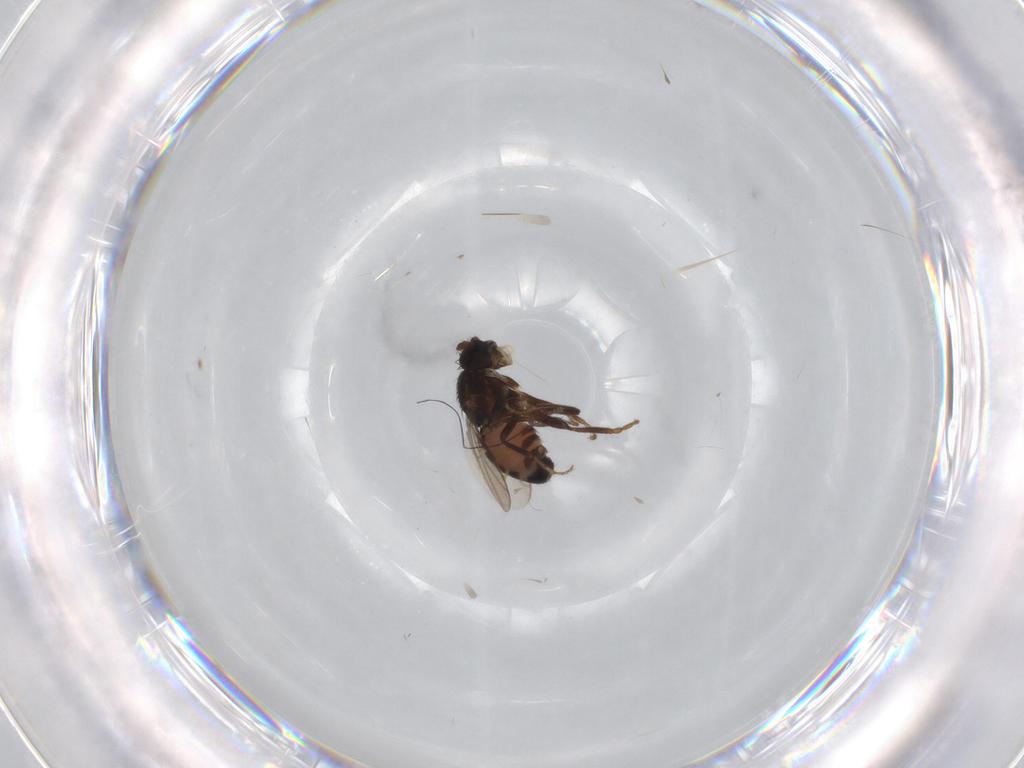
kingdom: Animalia
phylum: Arthropoda
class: Insecta
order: Diptera
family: Sphaeroceridae
